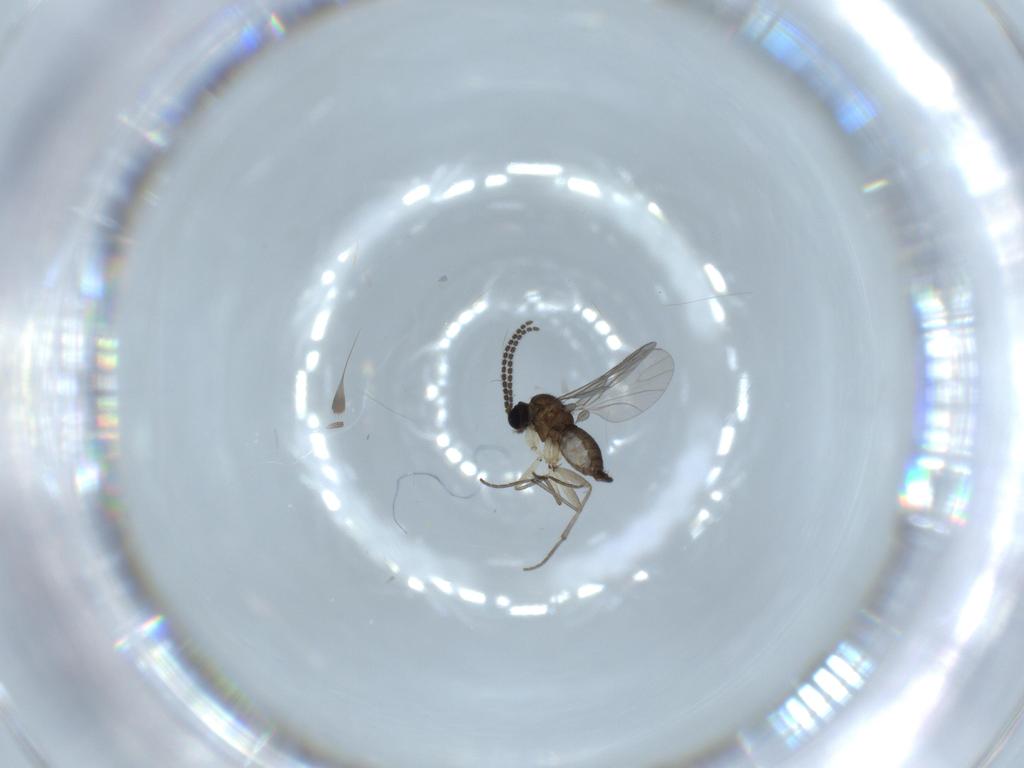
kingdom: Animalia
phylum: Arthropoda
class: Insecta
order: Diptera
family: Sciaridae
